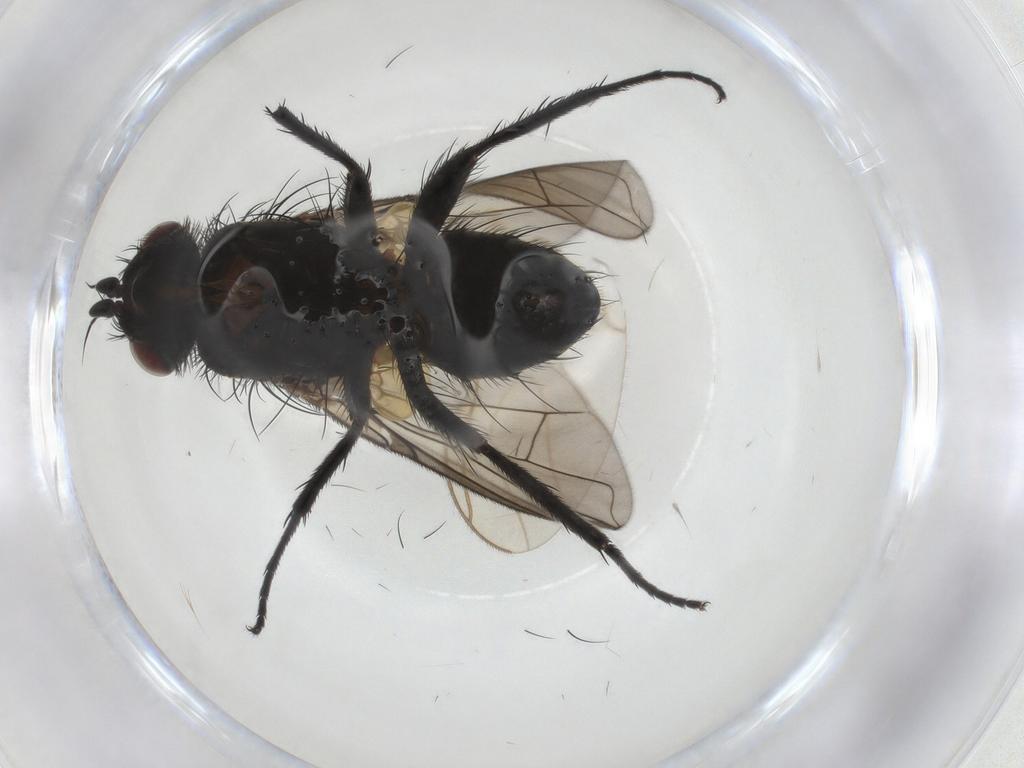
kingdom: Animalia
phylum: Arthropoda
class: Insecta
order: Diptera
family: Tachinidae
